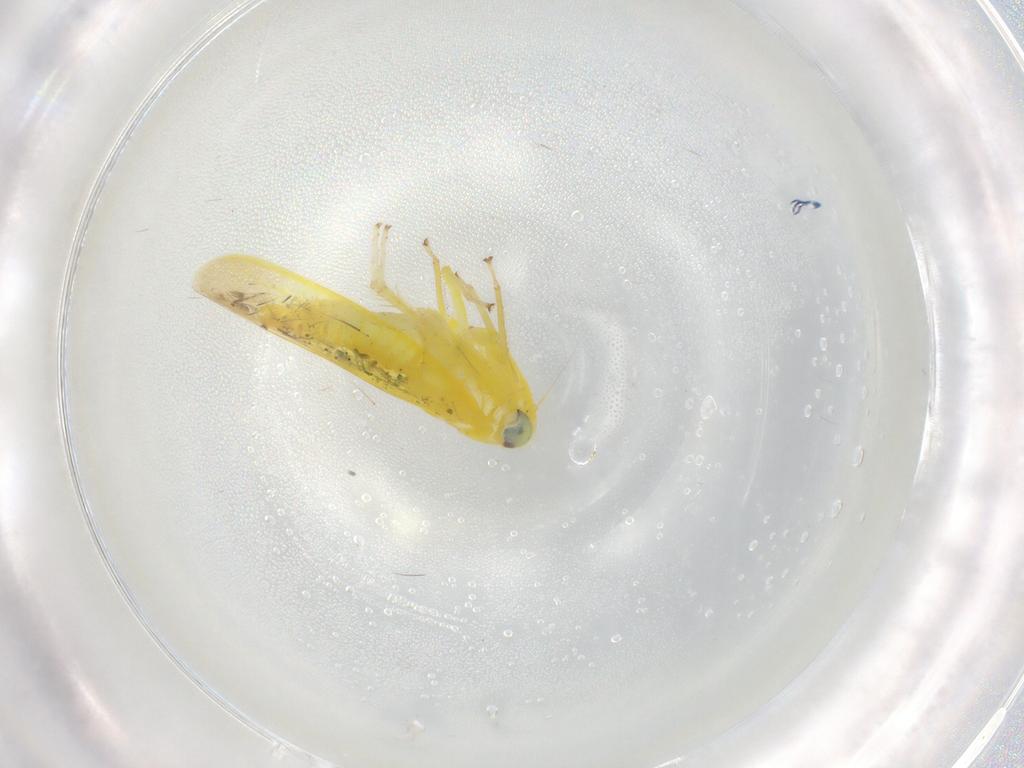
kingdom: Animalia
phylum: Arthropoda
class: Insecta
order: Hemiptera
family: Cicadellidae
